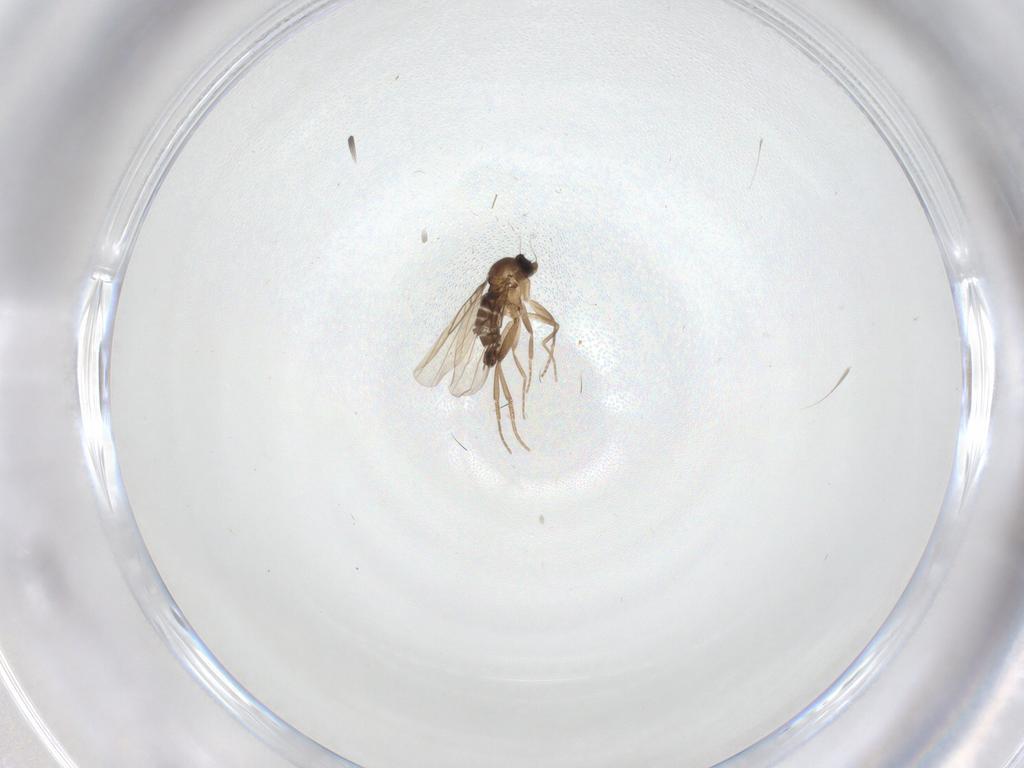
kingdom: Animalia
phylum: Arthropoda
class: Insecta
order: Diptera
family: Chironomidae
